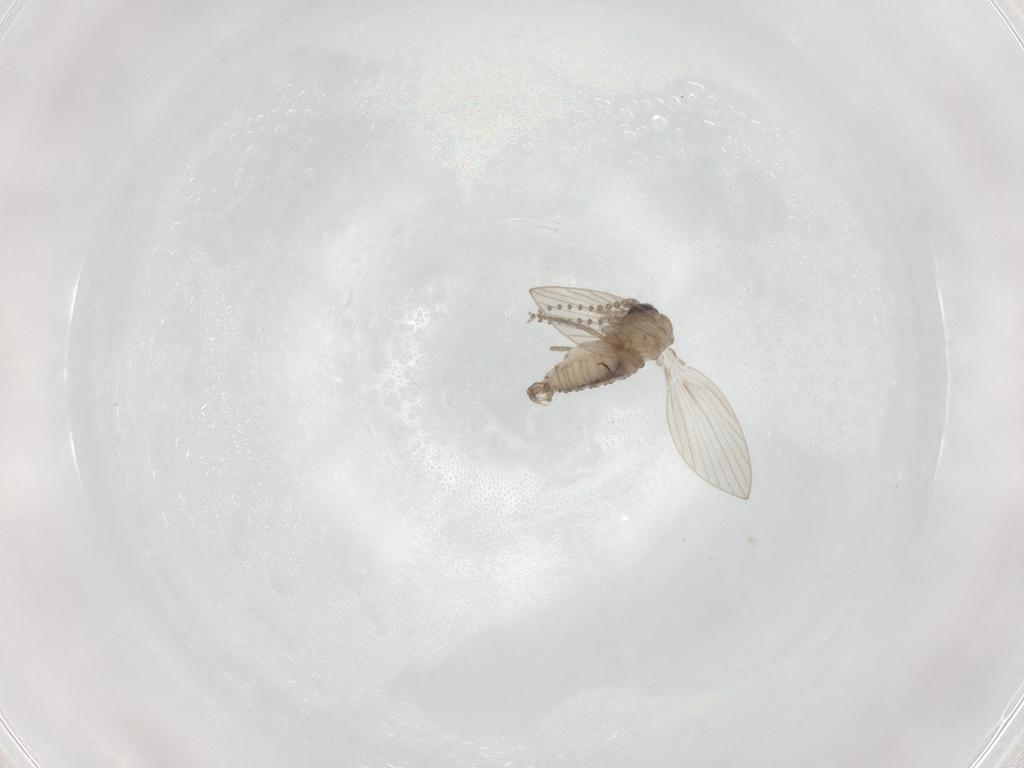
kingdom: Animalia
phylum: Arthropoda
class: Insecta
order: Diptera
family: Psychodidae
